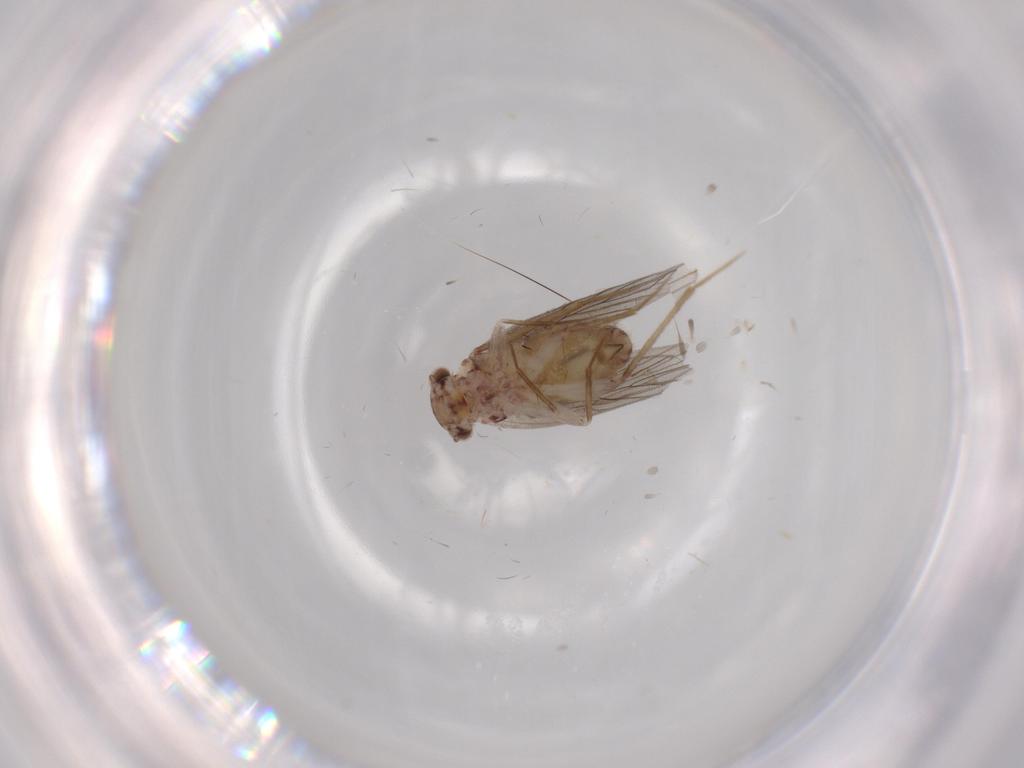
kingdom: Animalia
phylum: Arthropoda
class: Insecta
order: Psocodea
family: Lepidopsocidae
